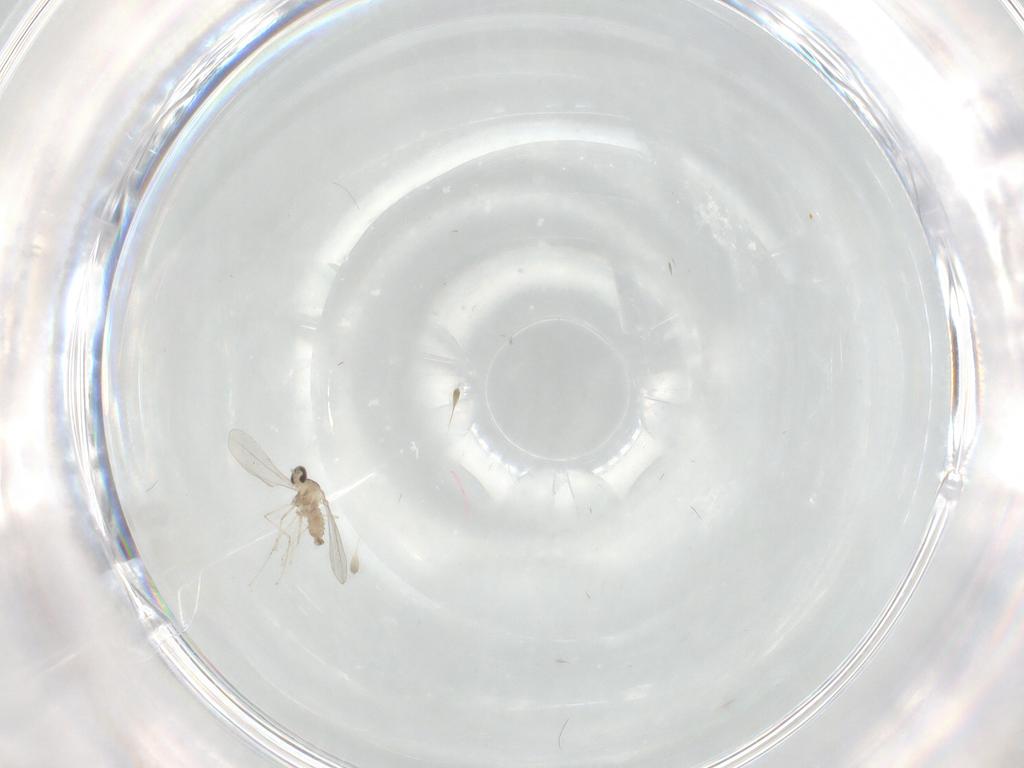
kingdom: Animalia
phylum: Arthropoda
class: Insecta
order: Diptera
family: Cecidomyiidae
